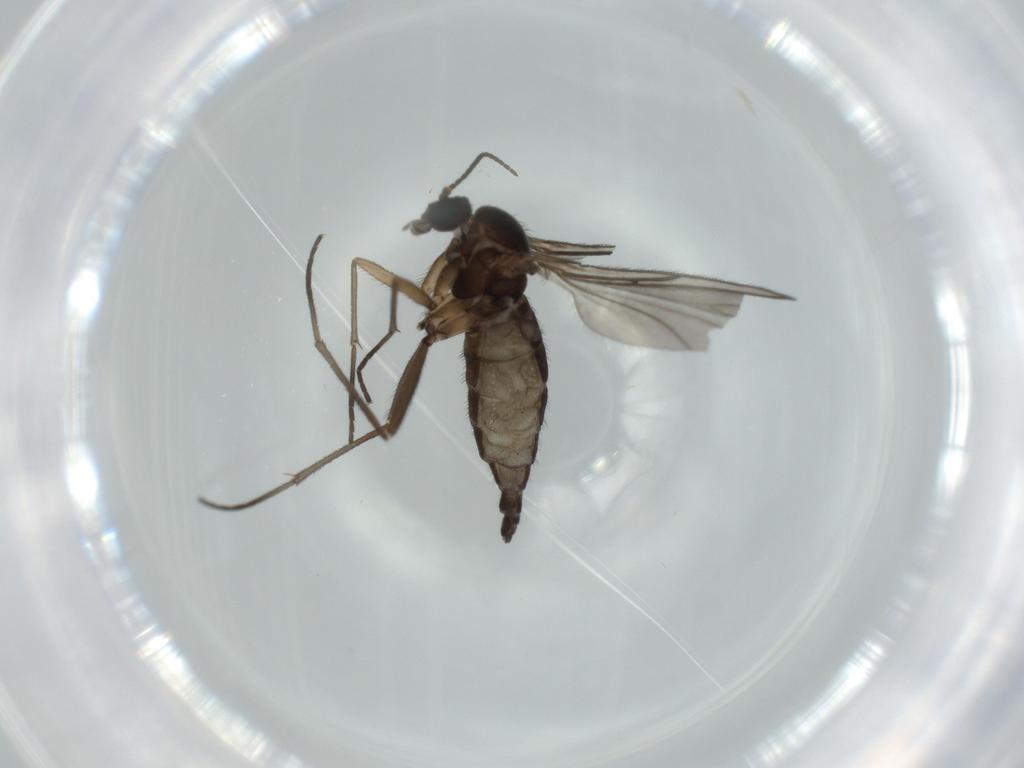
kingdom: Animalia
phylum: Arthropoda
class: Insecta
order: Diptera
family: Sciaridae
